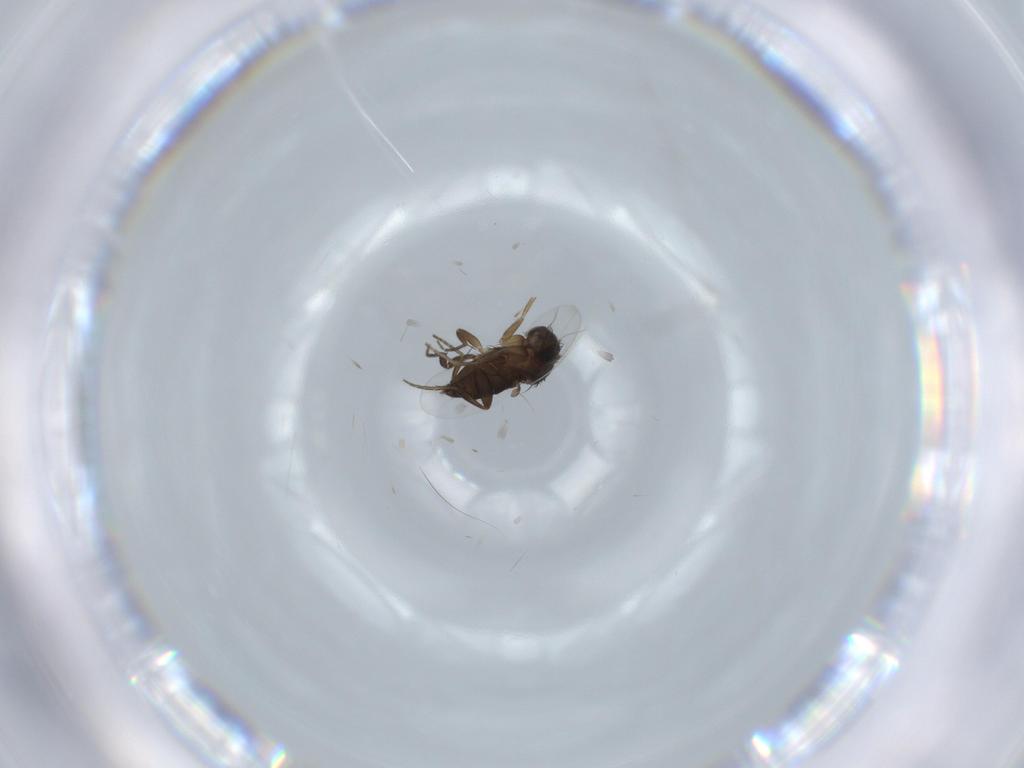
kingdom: Animalia
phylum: Arthropoda
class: Insecta
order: Diptera
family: Phoridae
